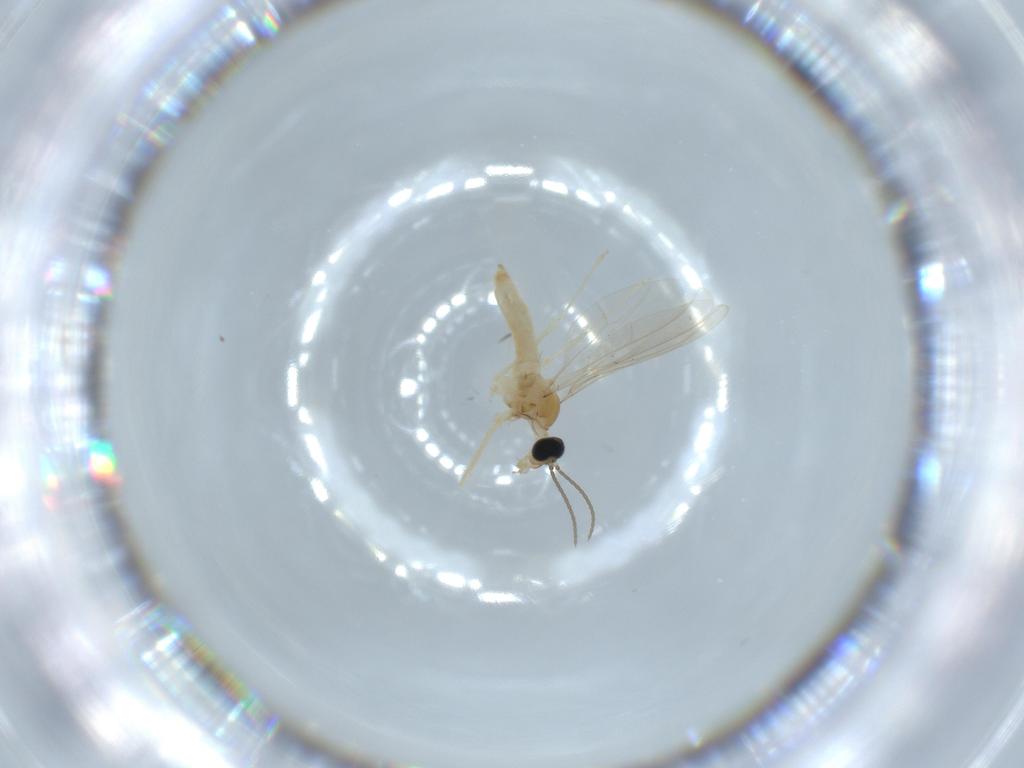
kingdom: Animalia
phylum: Arthropoda
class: Insecta
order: Diptera
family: Cecidomyiidae
